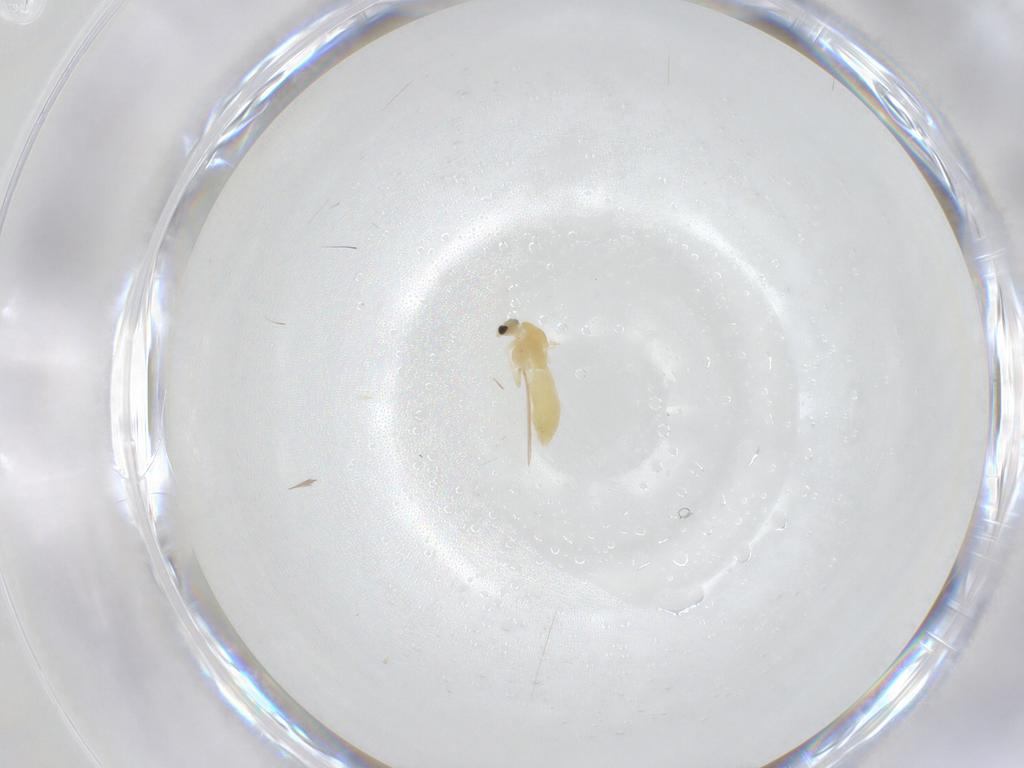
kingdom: Animalia
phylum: Arthropoda
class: Insecta
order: Diptera
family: Chironomidae
